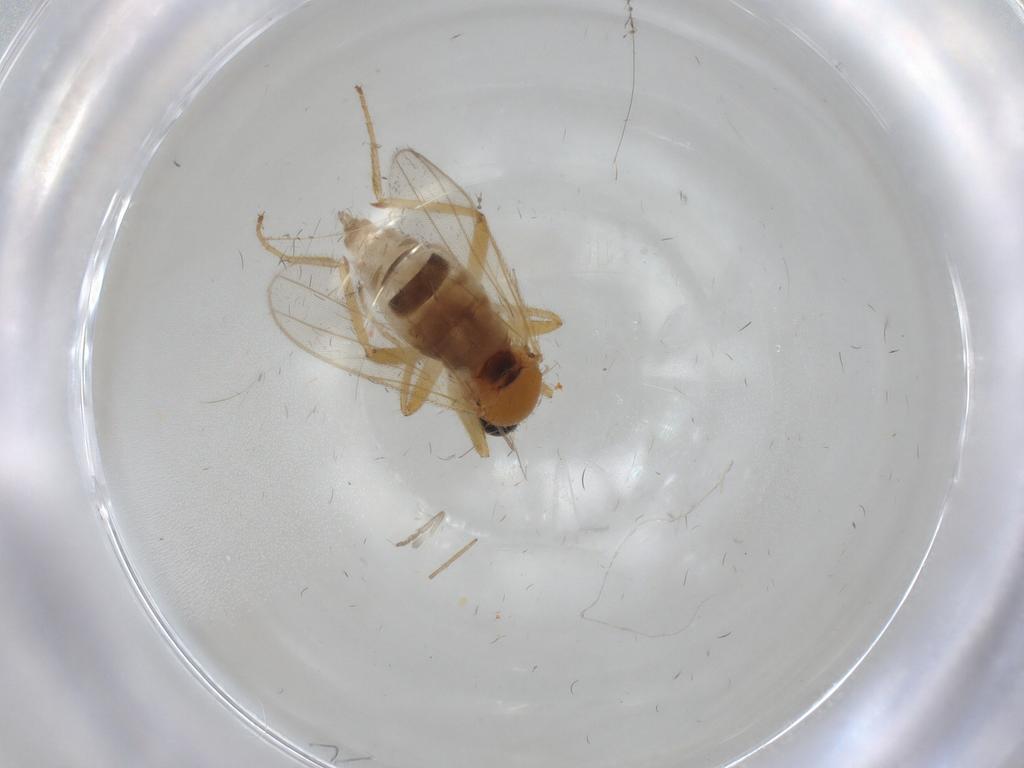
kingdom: Animalia
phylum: Arthropoda
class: Insecta
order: Diptera
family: Hybotidae
